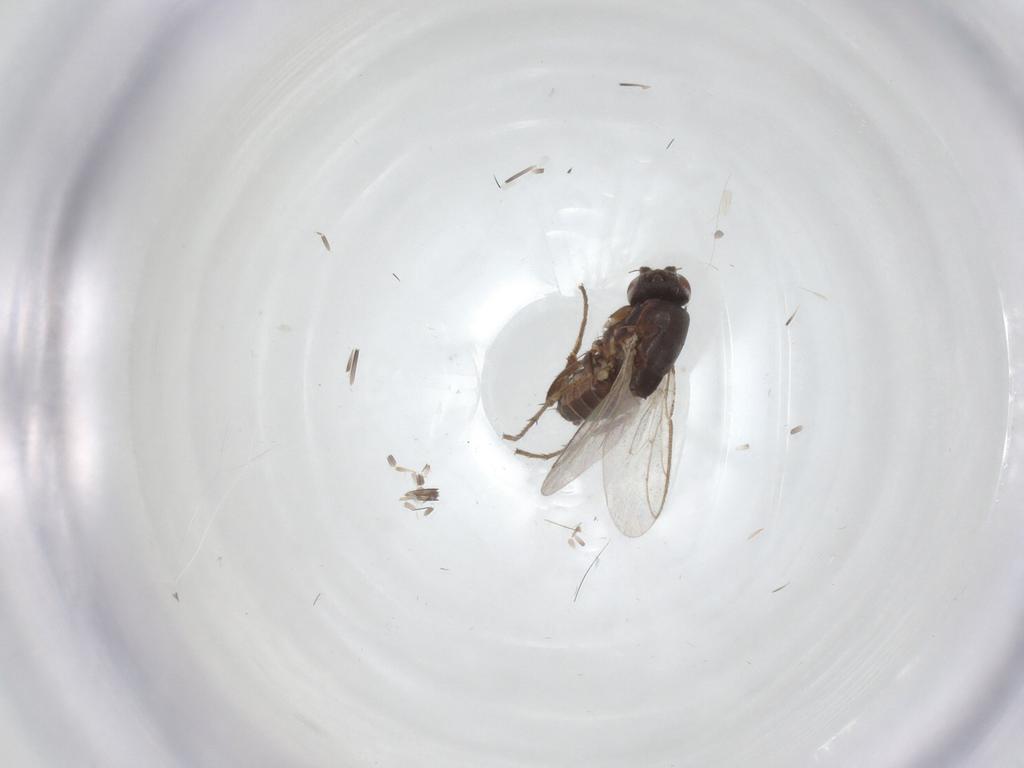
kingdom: Animalia
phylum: Arthropoda
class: Insecta
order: Diptera
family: Sphaeroceridae
